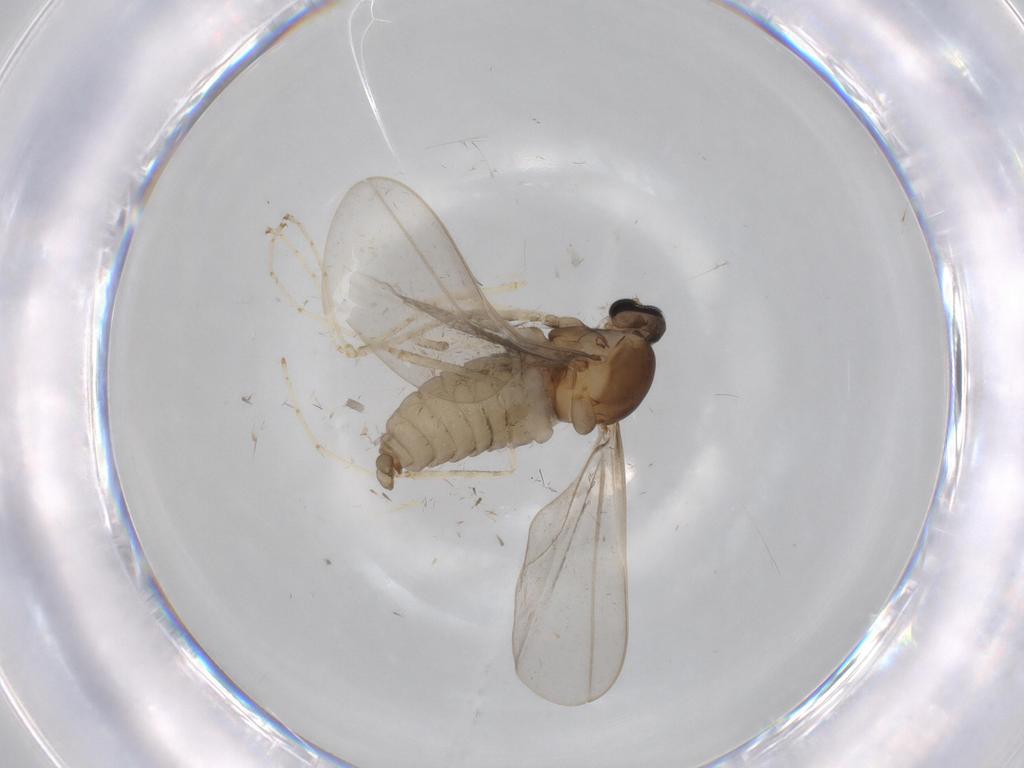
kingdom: Animalia
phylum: Arthropoda
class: Insecta
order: Diptera
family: Cecidomyiidae
